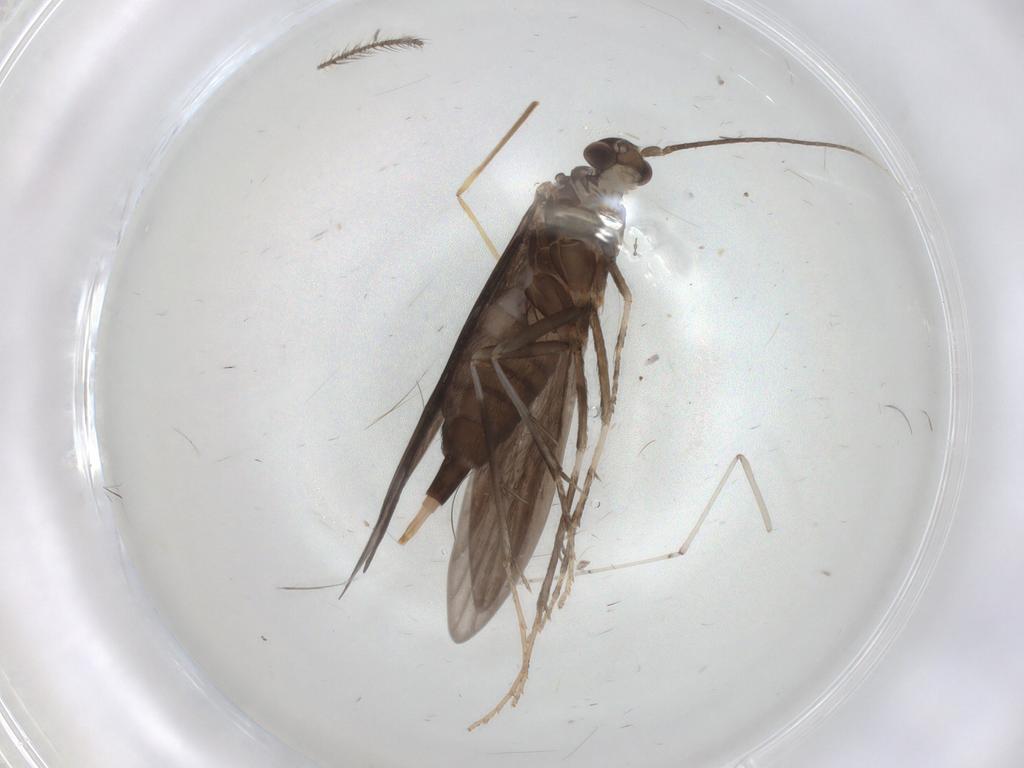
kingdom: Animalia
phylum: Arthropoda
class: Insecta
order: Trichoptera
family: Xiphocentronidae
